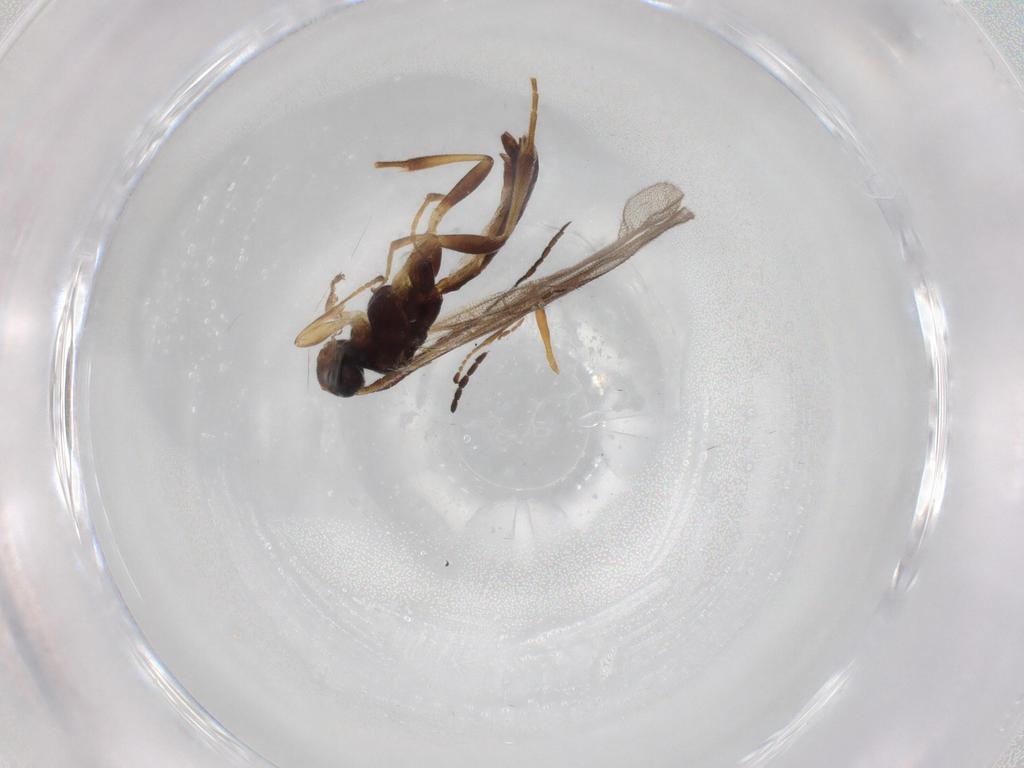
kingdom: Animalia
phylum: Arthropoda
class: Insecta
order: Hymenoptera
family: Ichneumonidae
